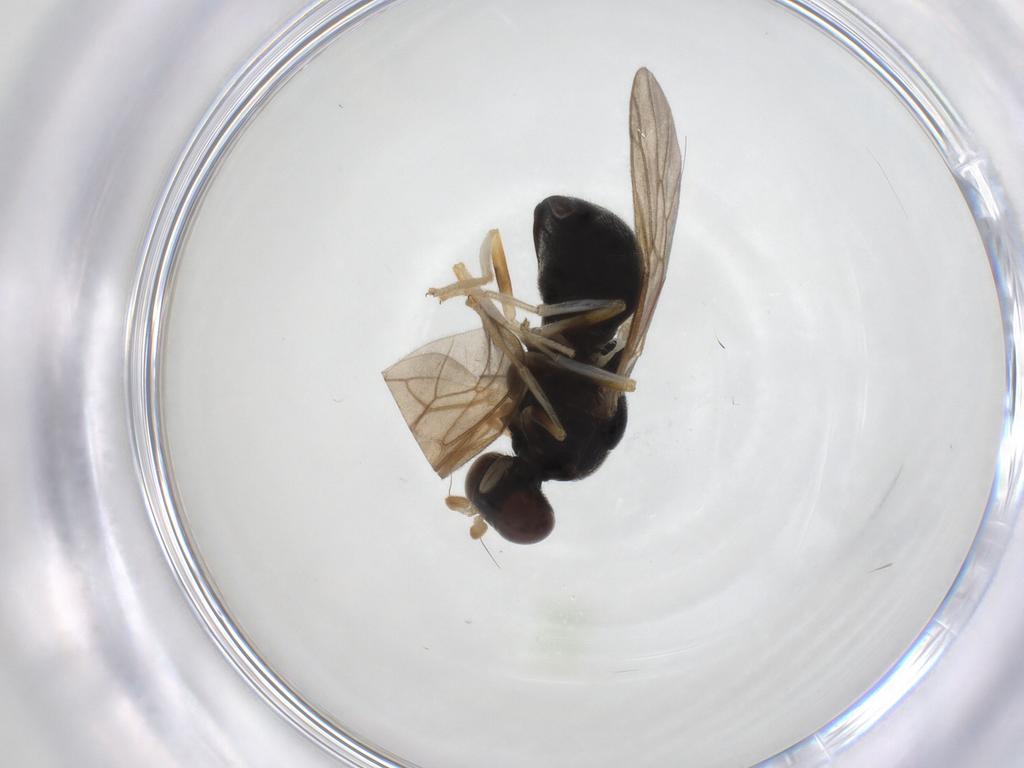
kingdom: Animalia
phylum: Arthropoda
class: Insecta
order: Diptera
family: Stratiomyidae
